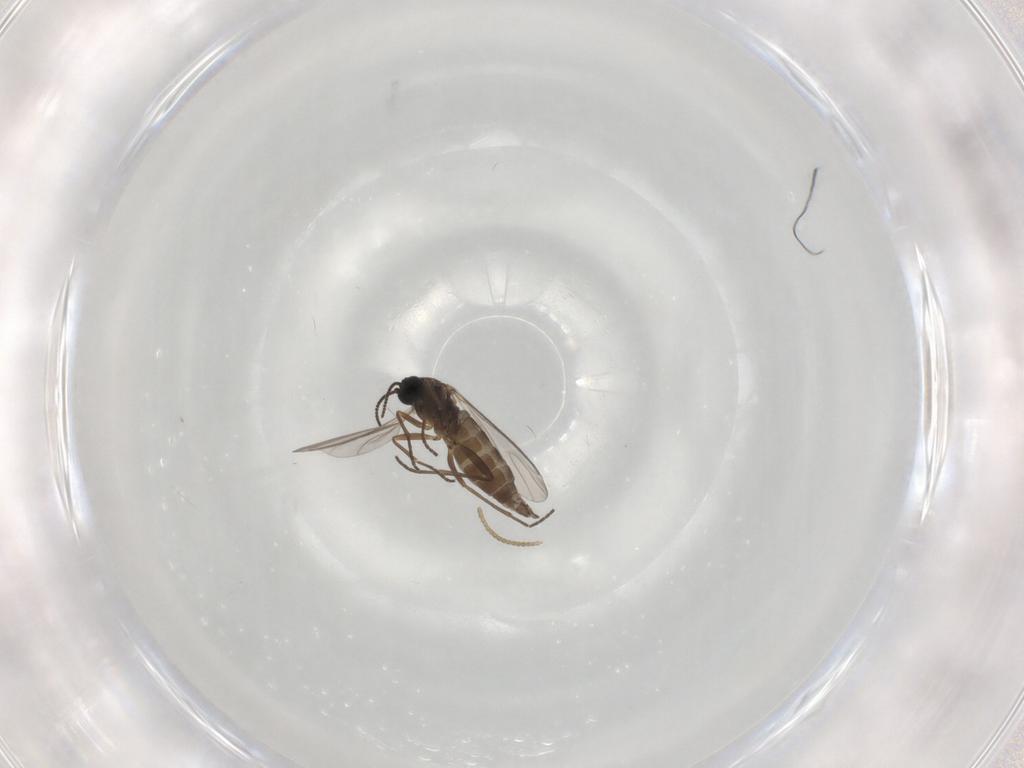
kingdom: Animalia
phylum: Arthropoda
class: Insecta
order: Diptera
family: Sciaridae
